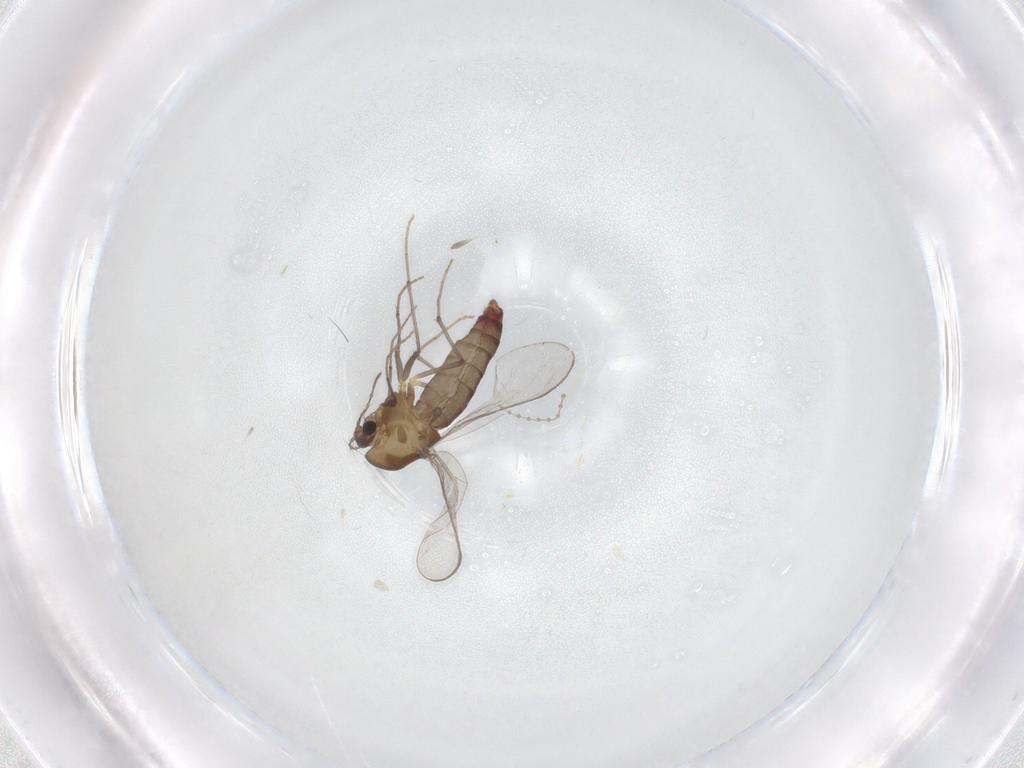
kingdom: Animalia
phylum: Arthropoda
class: Insecta
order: Diptera
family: Chironomidae
